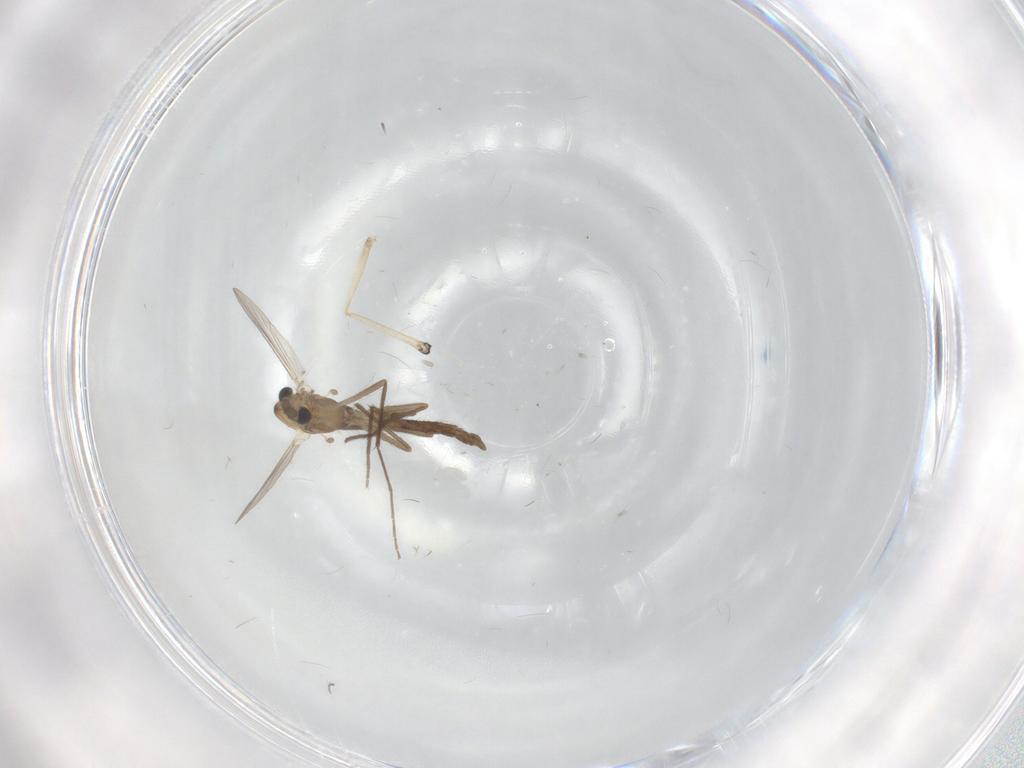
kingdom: Animalia
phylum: Arthropoda
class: Insecta
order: Diptera
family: Chironomidae
